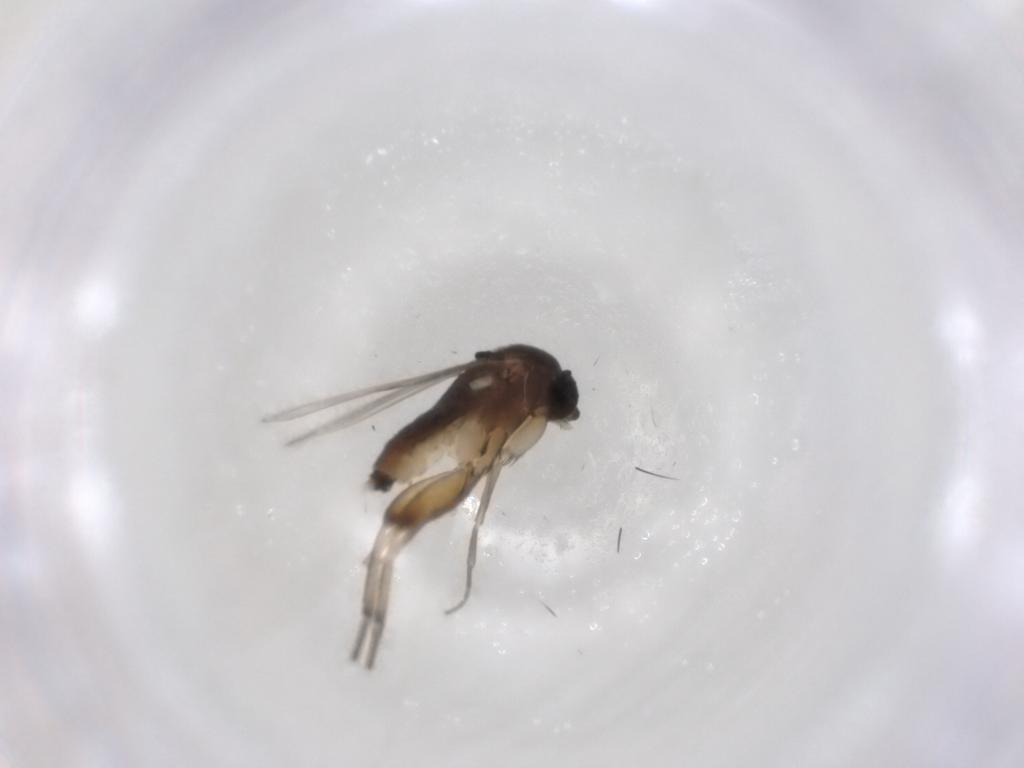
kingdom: Animalia
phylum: Arthropoda
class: Insecta
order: Diptera
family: Phoridae
